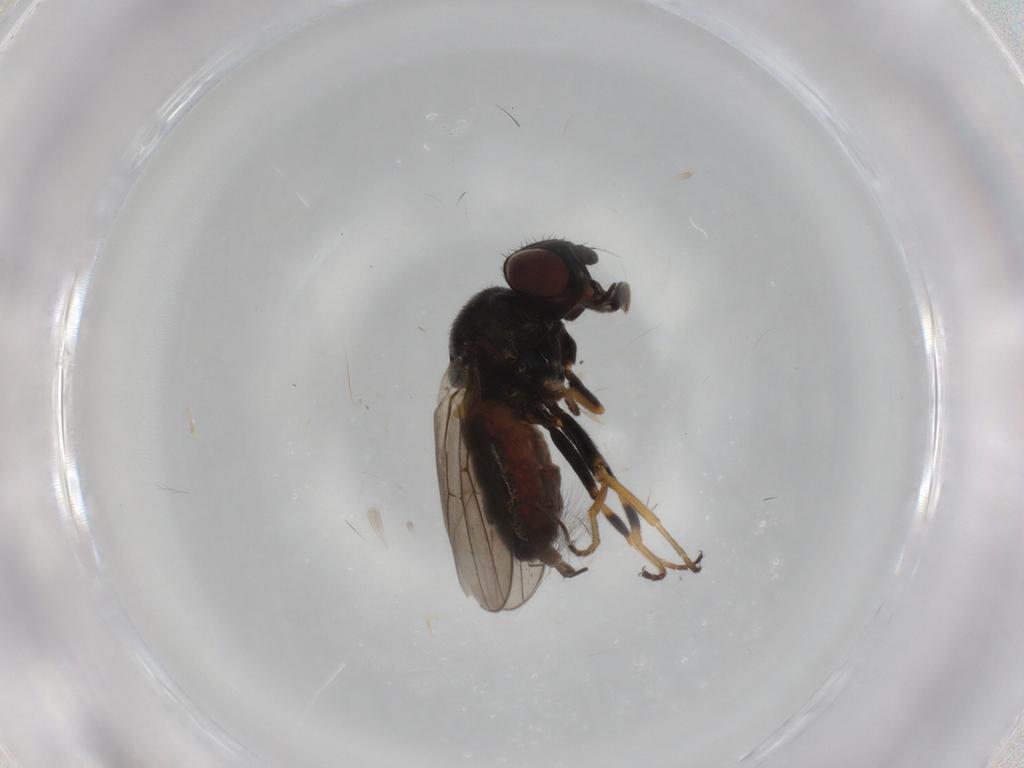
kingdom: Animalia
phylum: Arthropoda
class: Insecta
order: Diptera
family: Chloropidae
